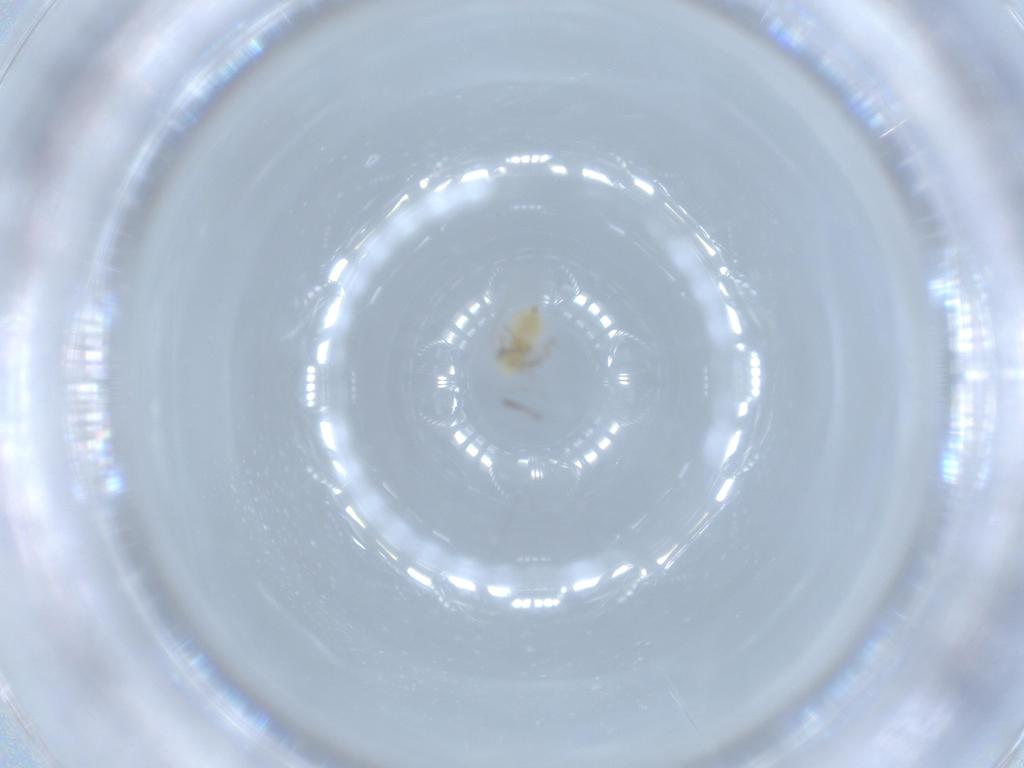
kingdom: Animalia
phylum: Arthropoda
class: Insecta
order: Psocodea
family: Caeciliusidae
